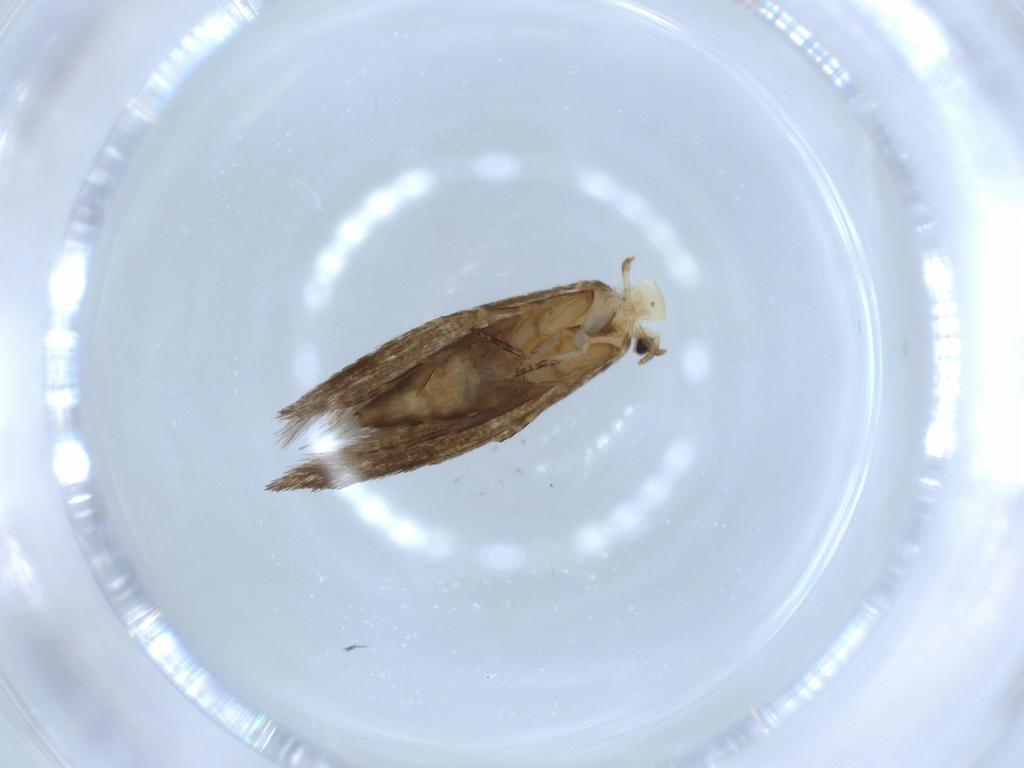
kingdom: Animalia
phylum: Arthropoda
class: Insecta
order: Lepidoptera
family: Tineidae
